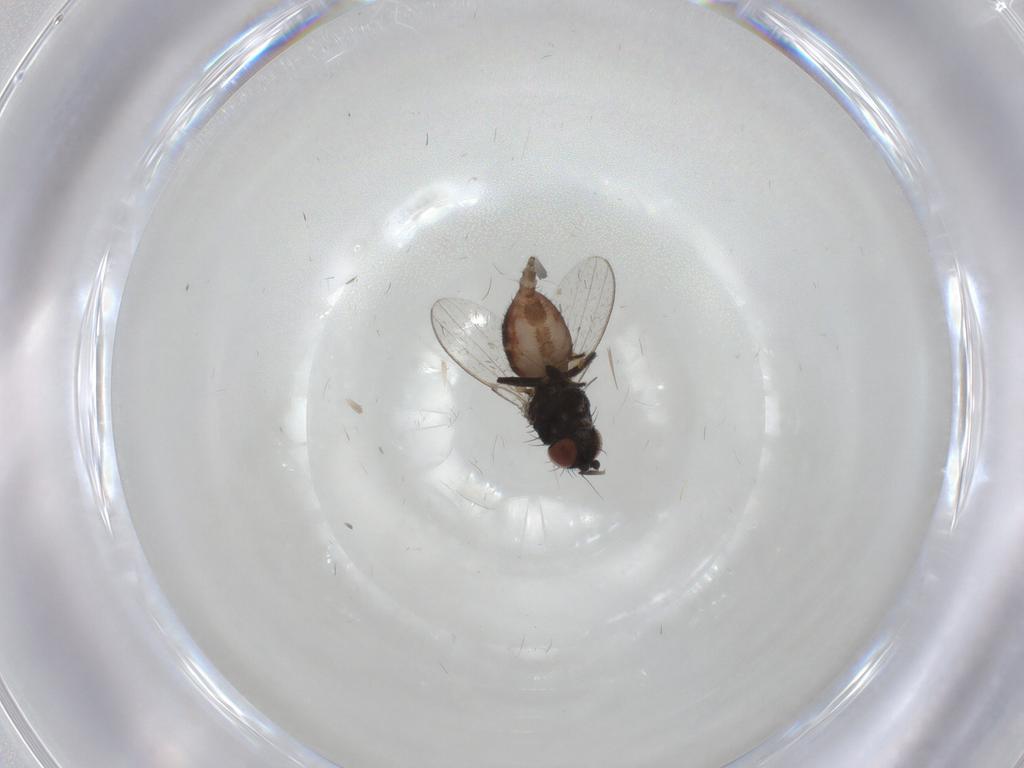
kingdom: Animalia
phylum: Arthropoda
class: Insecta
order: Diptera
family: Milichiidae
